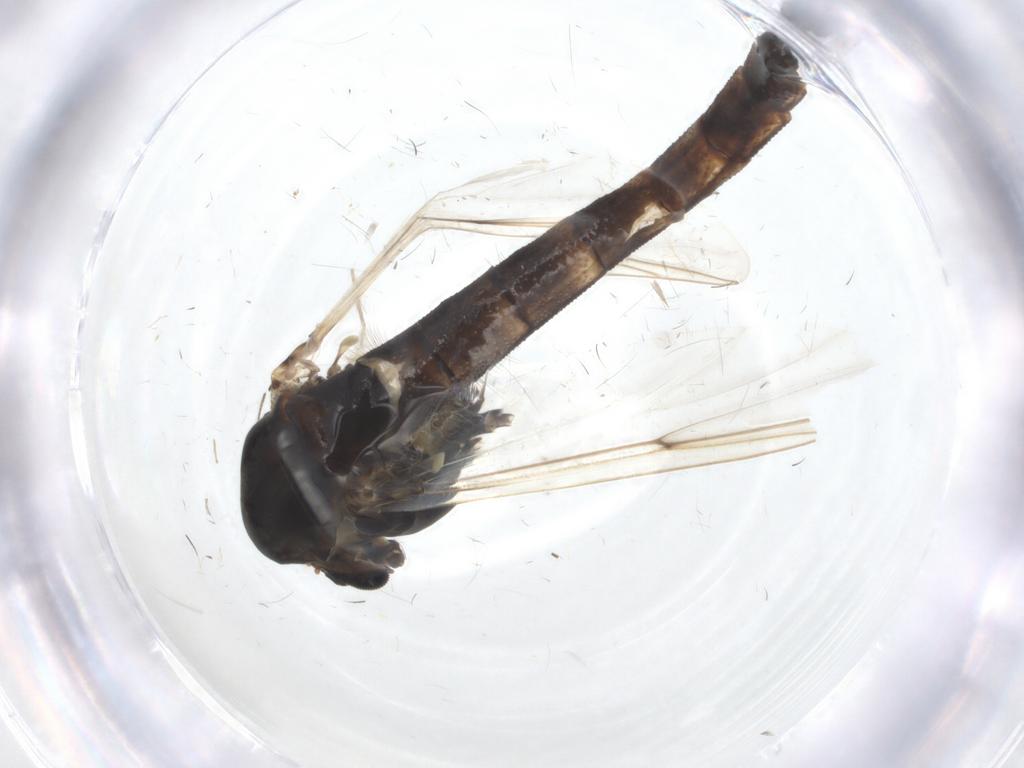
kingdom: Animalia
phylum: Arthropoda
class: Insecta
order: Diptera
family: Chironomidae
